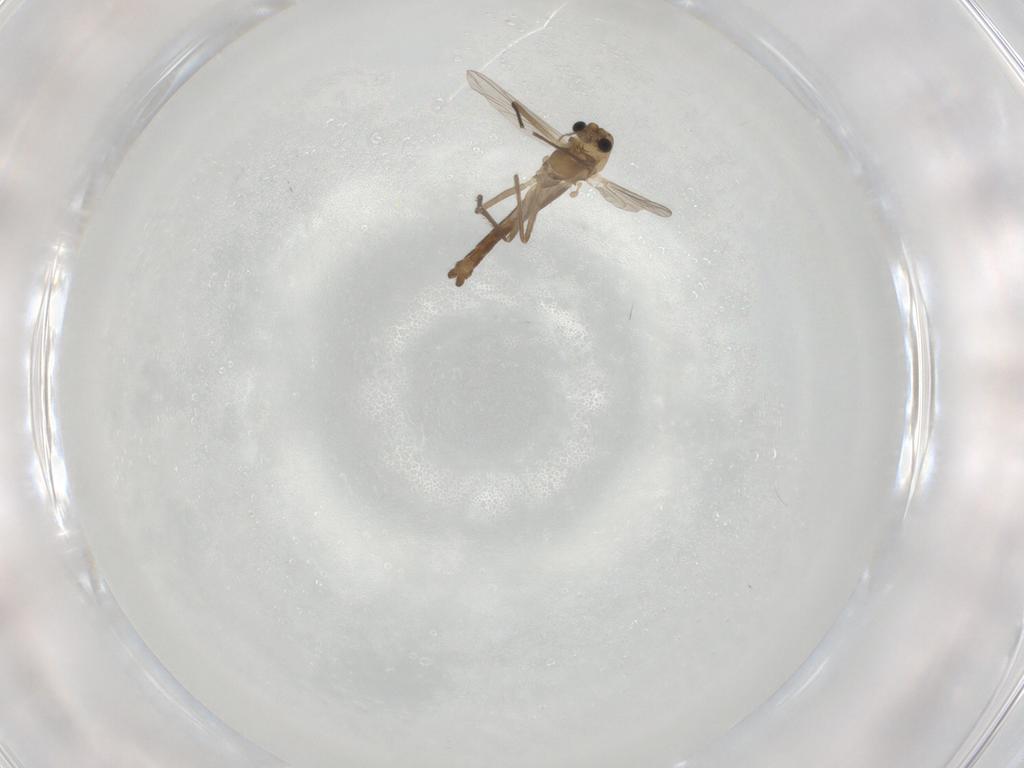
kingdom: Animalia
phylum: Arthropoda
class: Insecta
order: Diptera
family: Chironomidae
